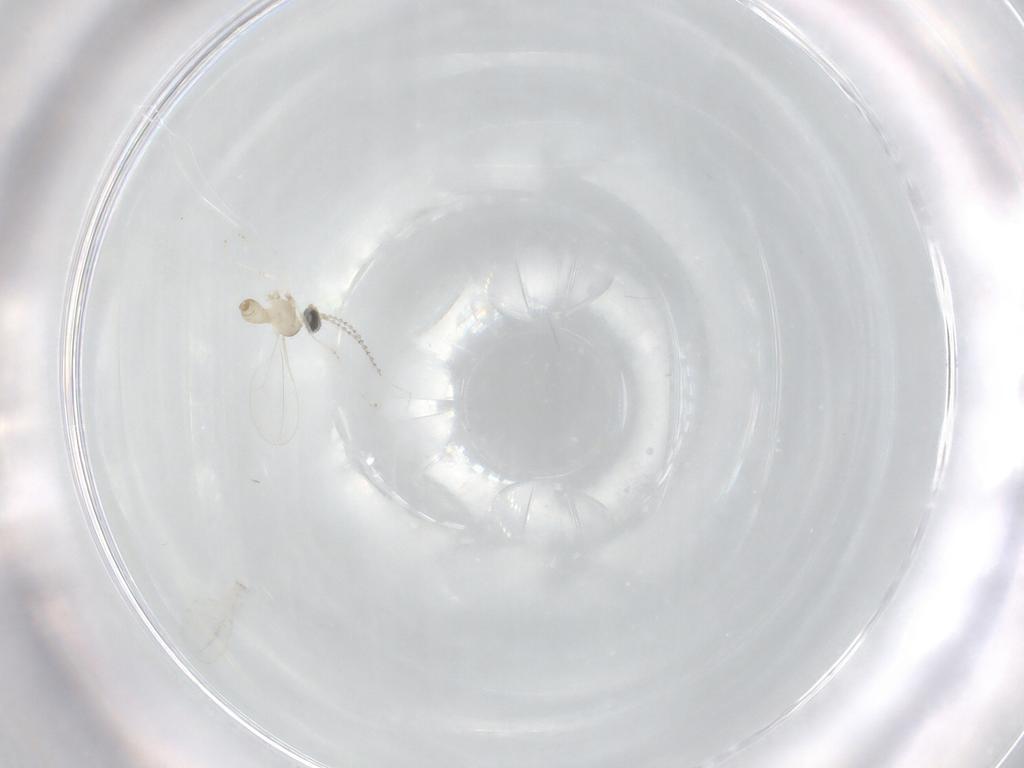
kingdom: Animalia
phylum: Arthropoda
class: Insecta
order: Diptera
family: Cecidomyiidae
